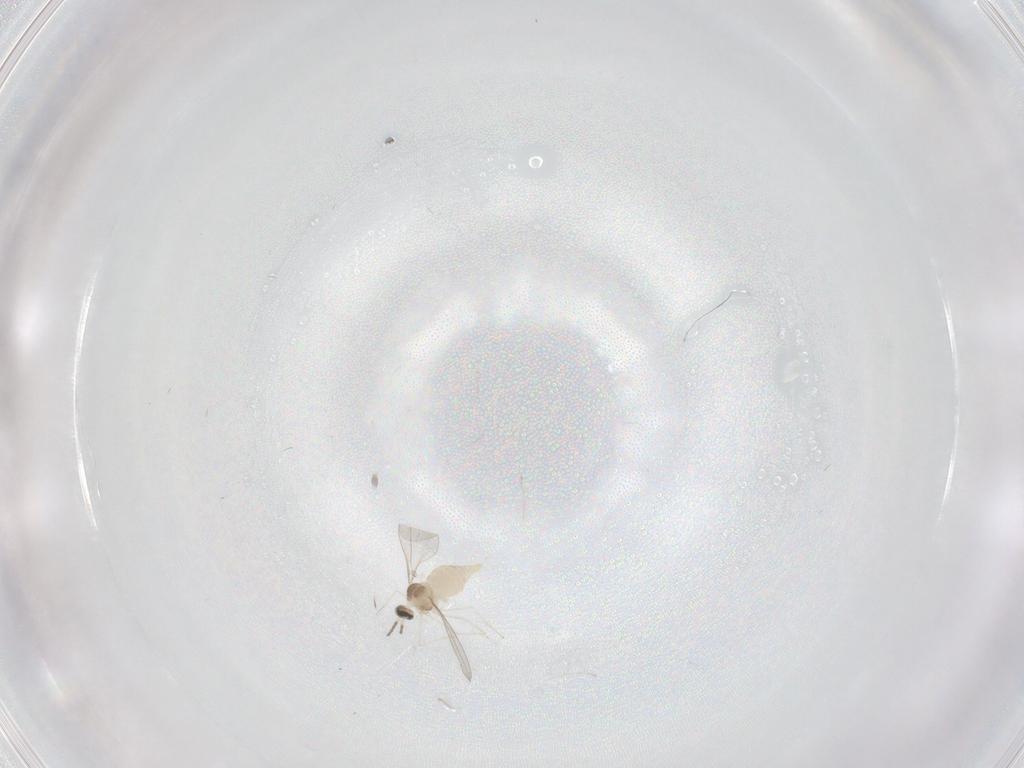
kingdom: Animalia
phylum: Arthropoda
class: Insecta
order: Diptera
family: Cecidomyiidae
